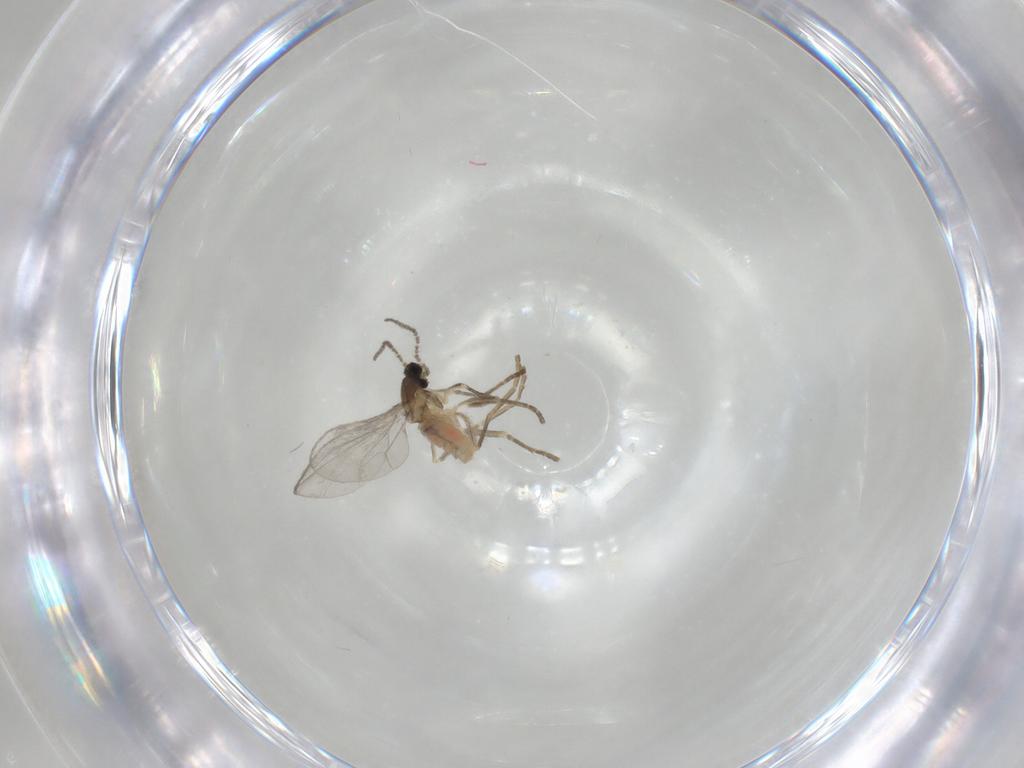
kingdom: Animalia
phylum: Arthropoda
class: Insecta
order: Diptera
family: Cecidomyiidae
